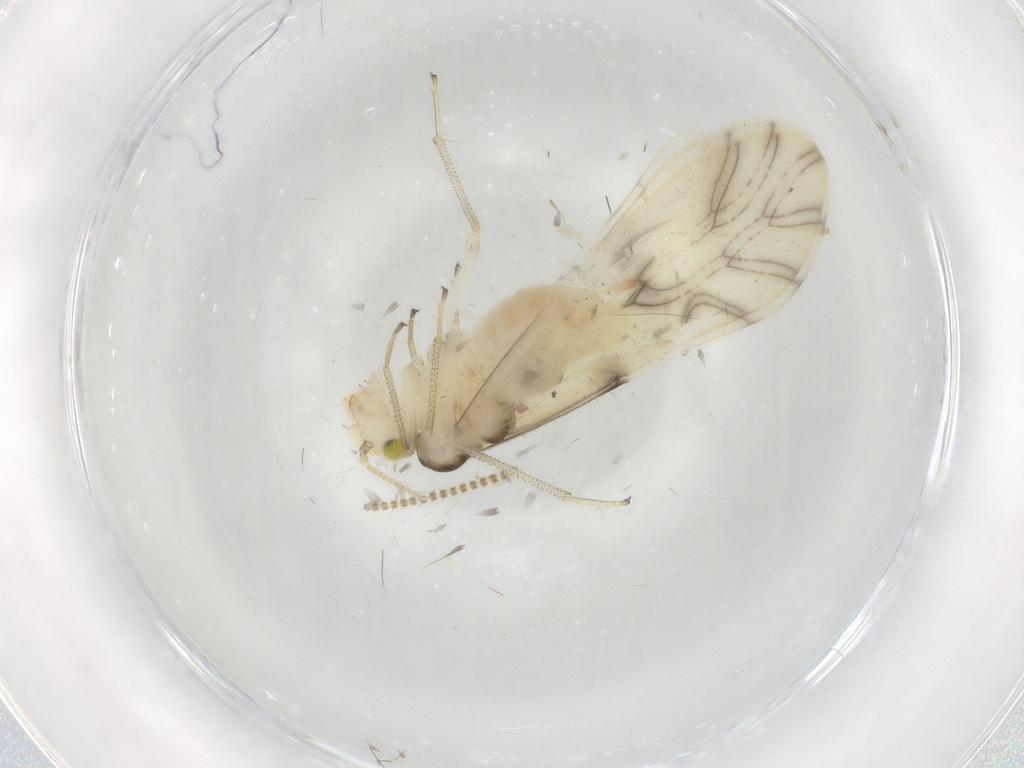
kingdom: Animalia
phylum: Arthropoda
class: Insecta
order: Psocodea
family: Caeciliusidae
